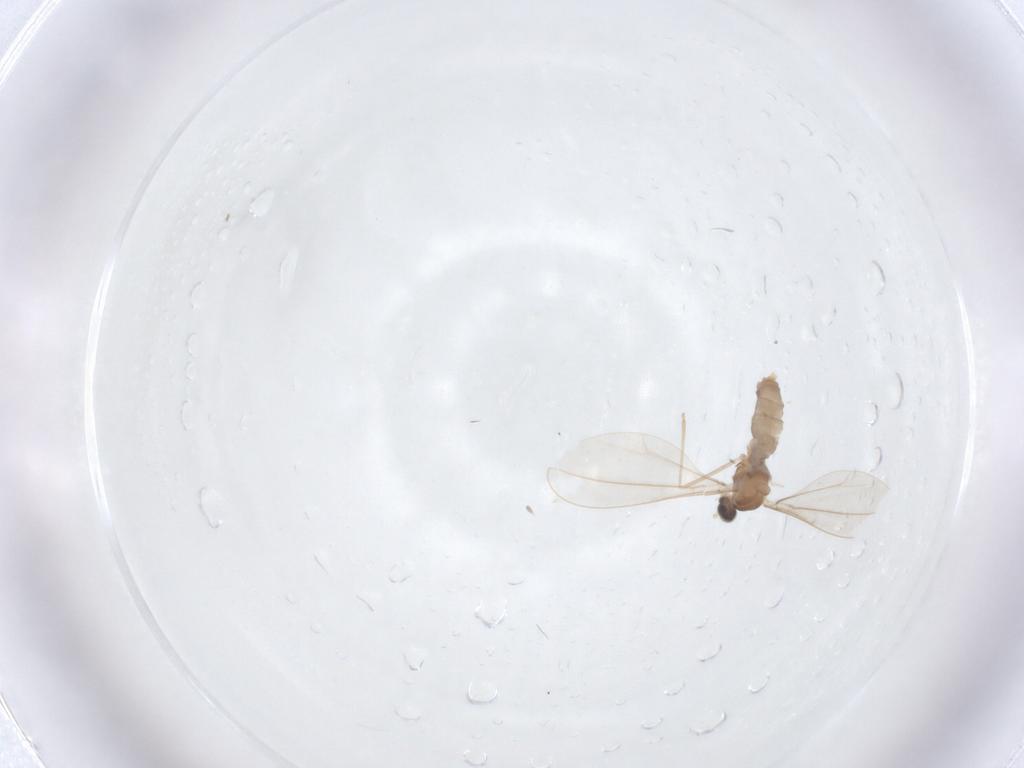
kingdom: Animalia
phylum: Arthropoda
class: Insecta
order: Diptera
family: Cecidomyiidae
